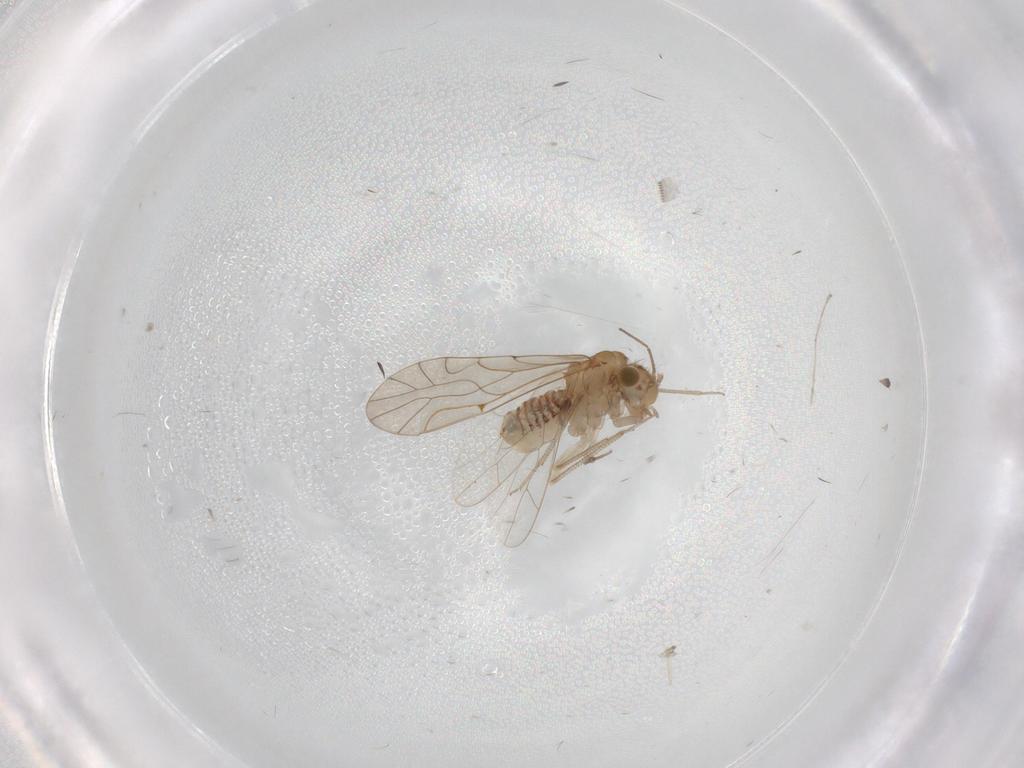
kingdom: Animalia
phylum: Arthropoda
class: Insecta
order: Psocodea
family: Lachesillidae
